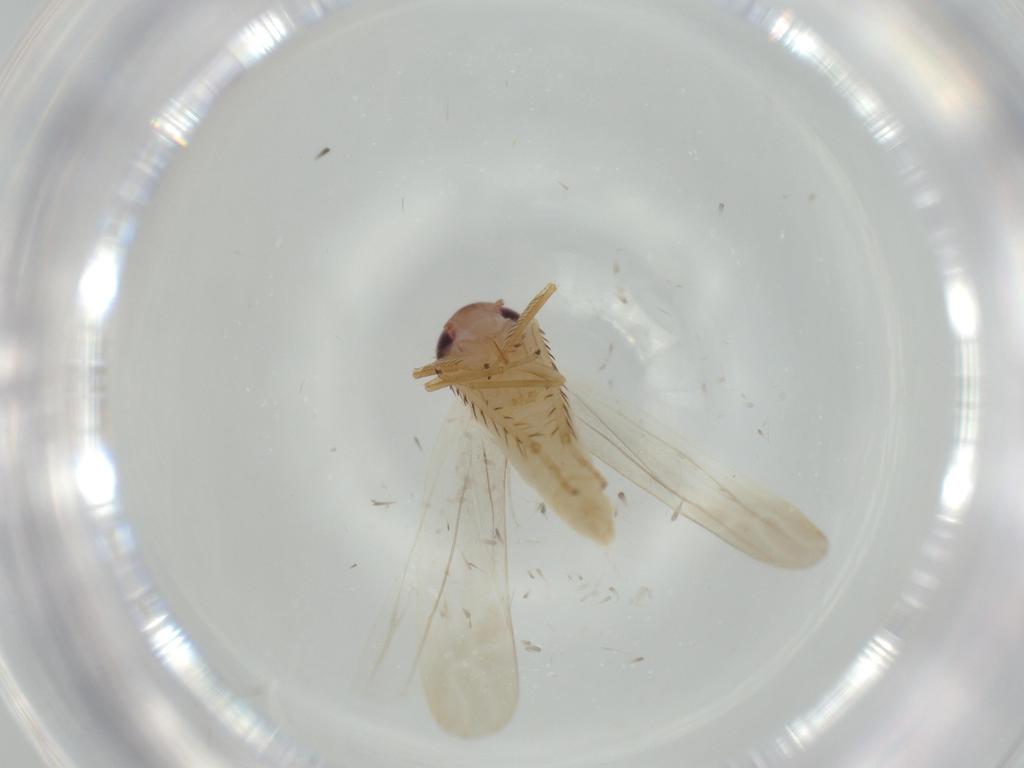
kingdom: Animalia
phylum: Arthropoda
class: Insecta
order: Hemiptera
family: Cicadellidae
